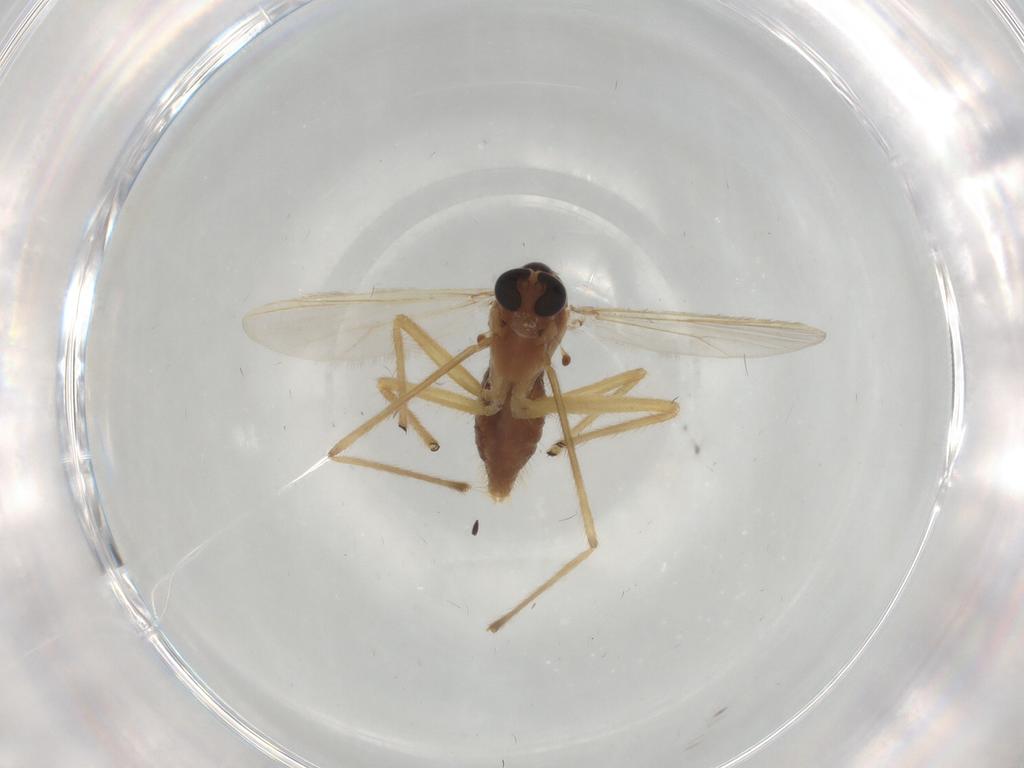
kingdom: Animalia
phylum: Arthropoda
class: Insecta
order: Diptera
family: Chironomidae
